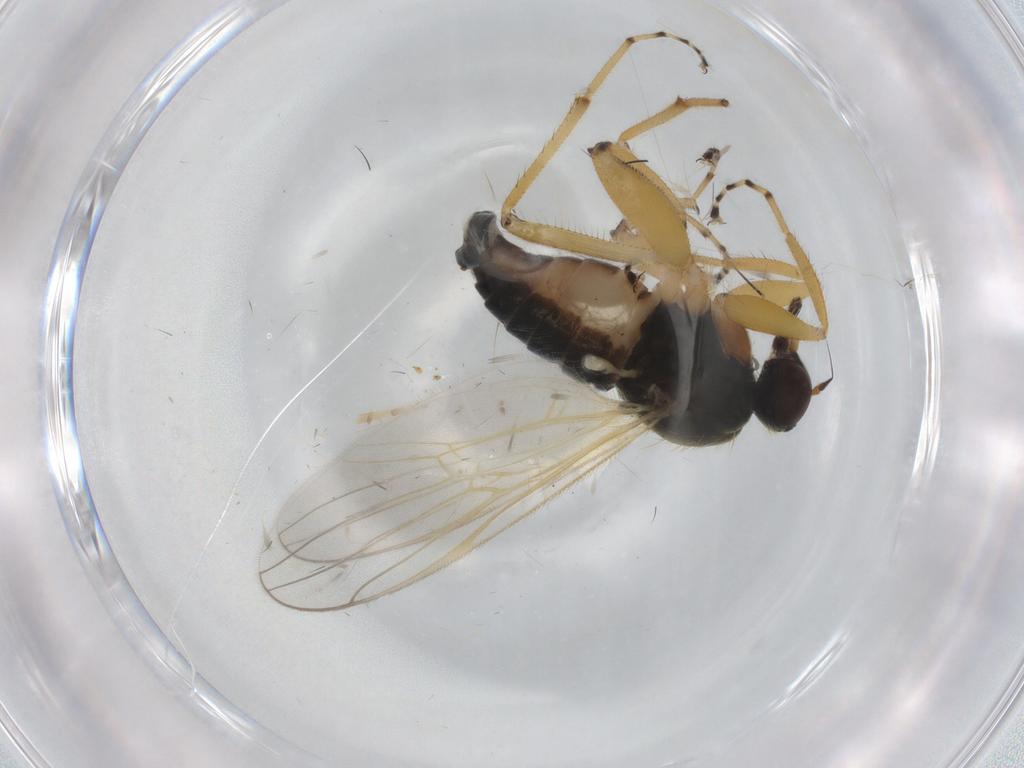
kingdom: Animalia
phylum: Arthropoda
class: Insecta
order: Diptera
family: Hybotidae
